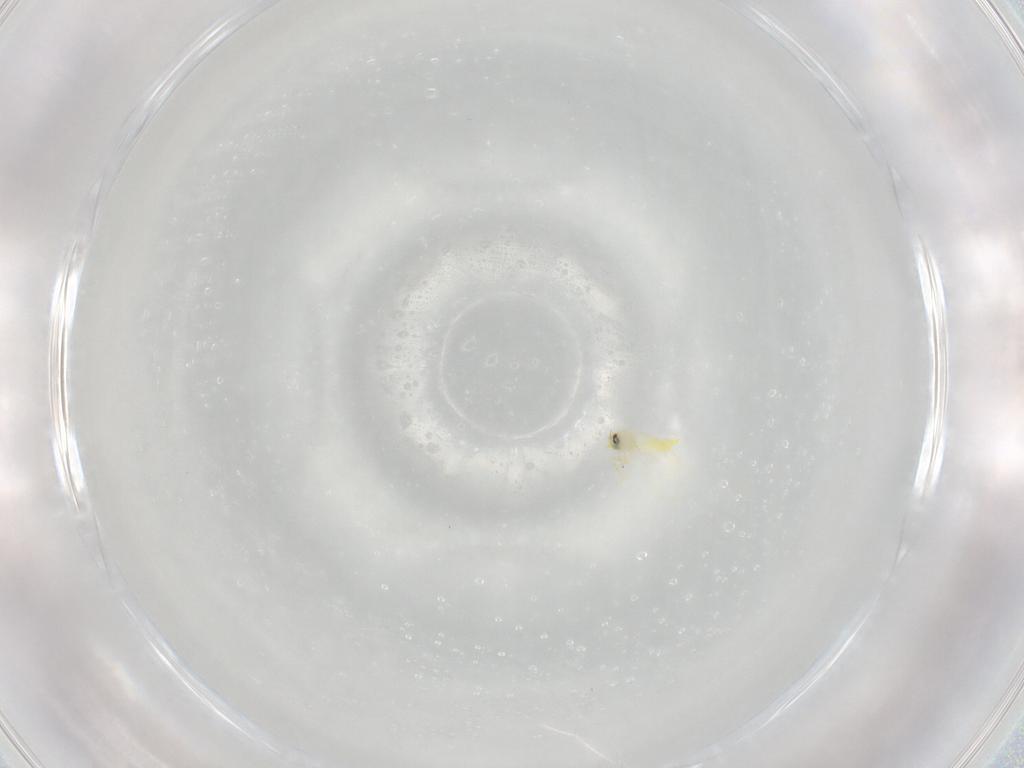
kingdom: Animalia
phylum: Arthropoda
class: Insecta
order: Hemiptera
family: Aleyrodidae
